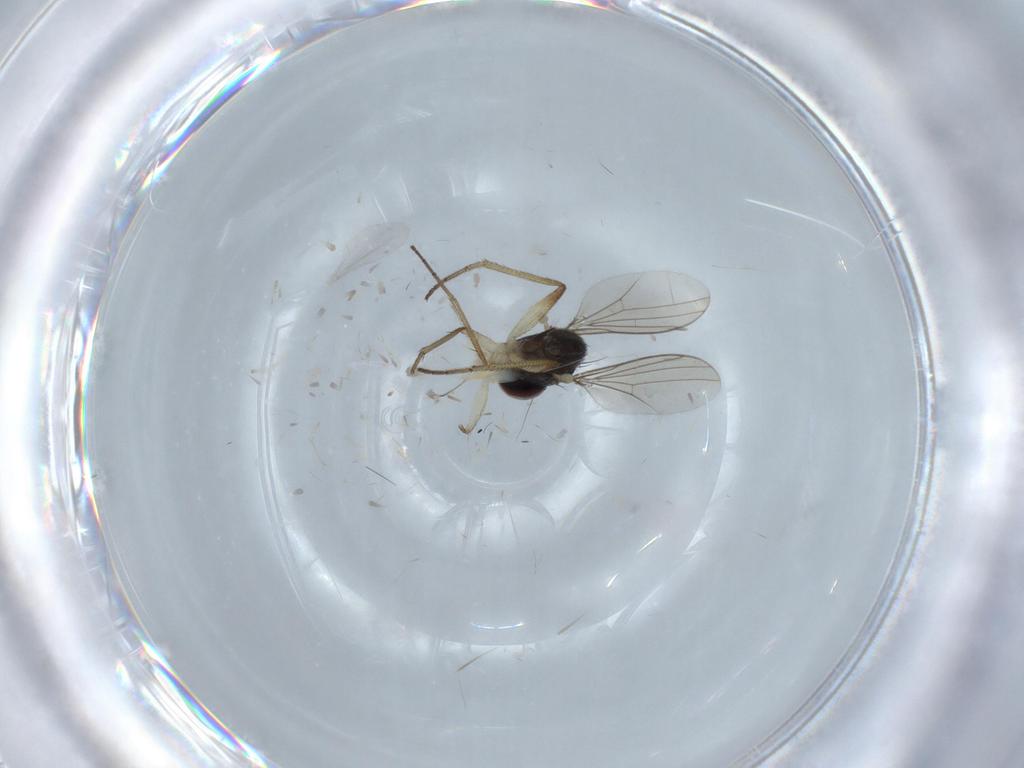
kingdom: Animalia
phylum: Arthropoda
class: Insecta
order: Diptera
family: Dolichopodidae
